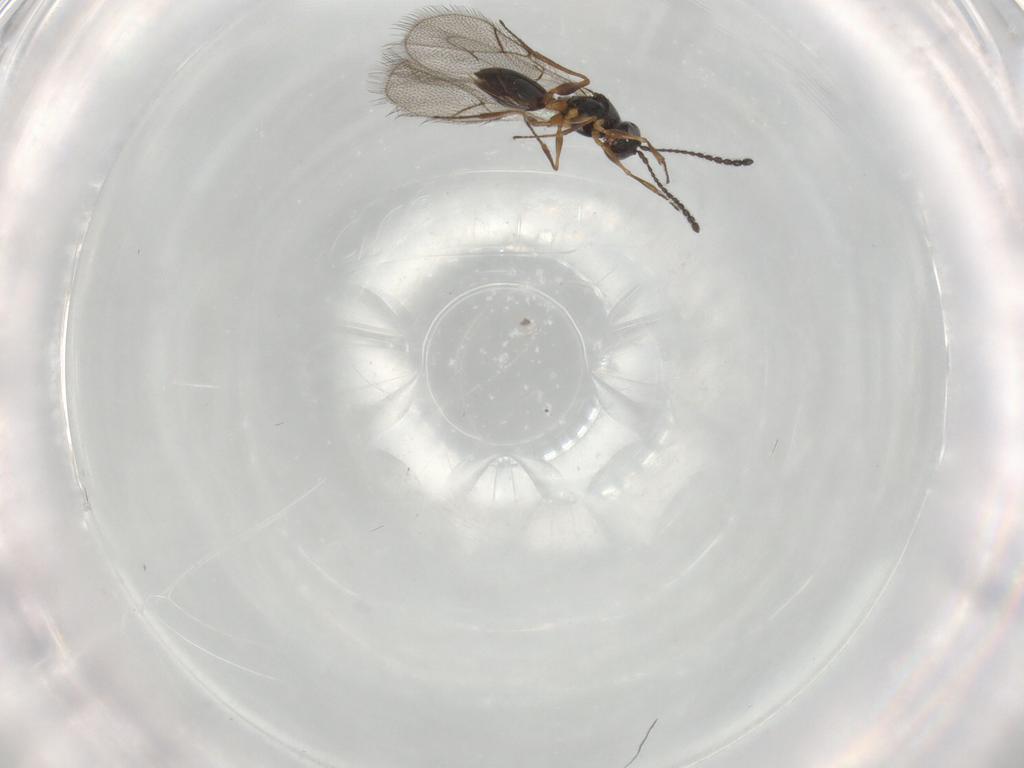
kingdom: Animalia
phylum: Arthropoda
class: Insecta
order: Hymenoptera
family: Figitidae
